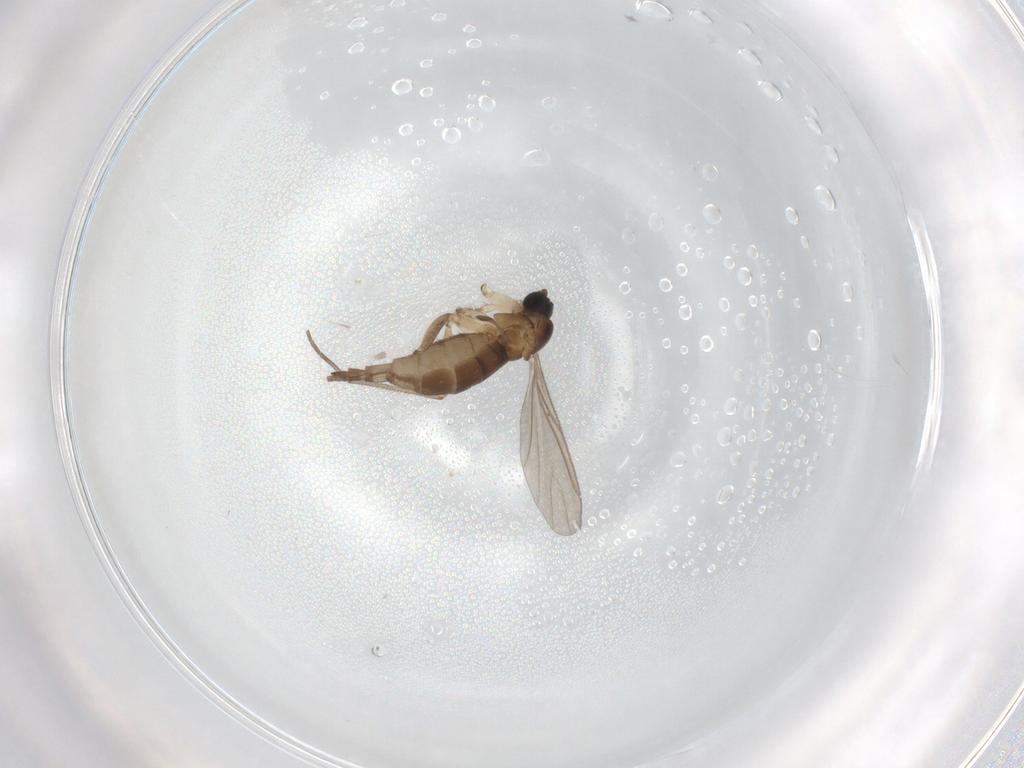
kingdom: Animalia
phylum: Arthropoda
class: Insecta
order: Diptera
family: Sciaridae
